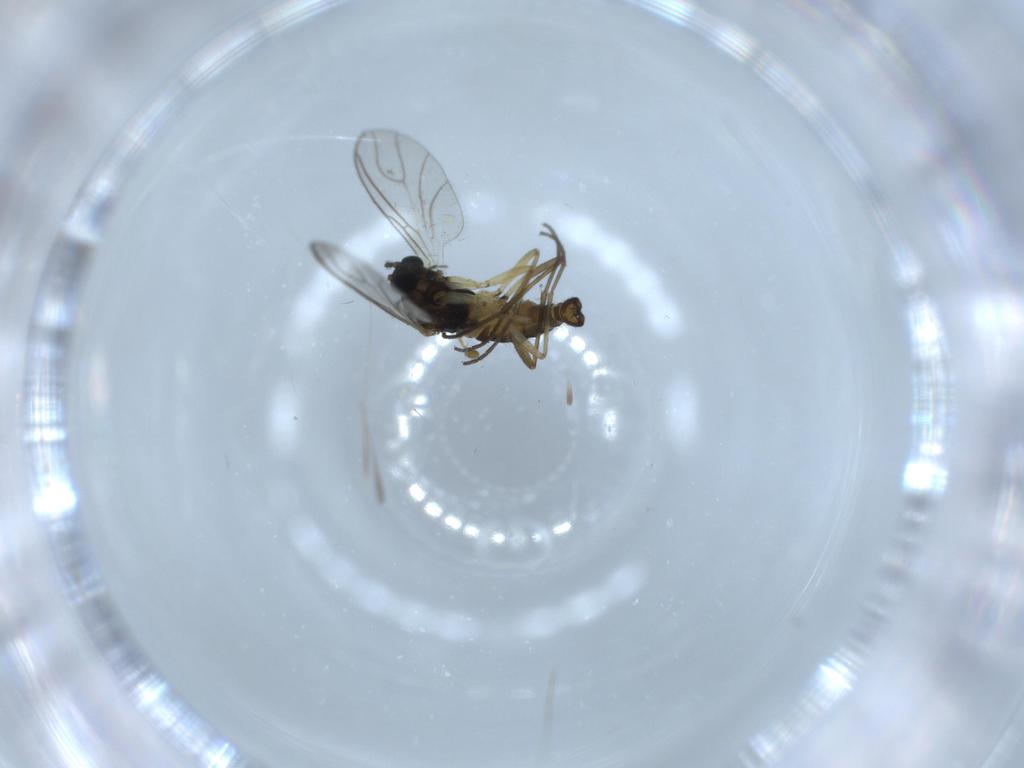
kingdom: Animalia
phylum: Arthropoda
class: Insecta
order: Diptera
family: Sciaridae
